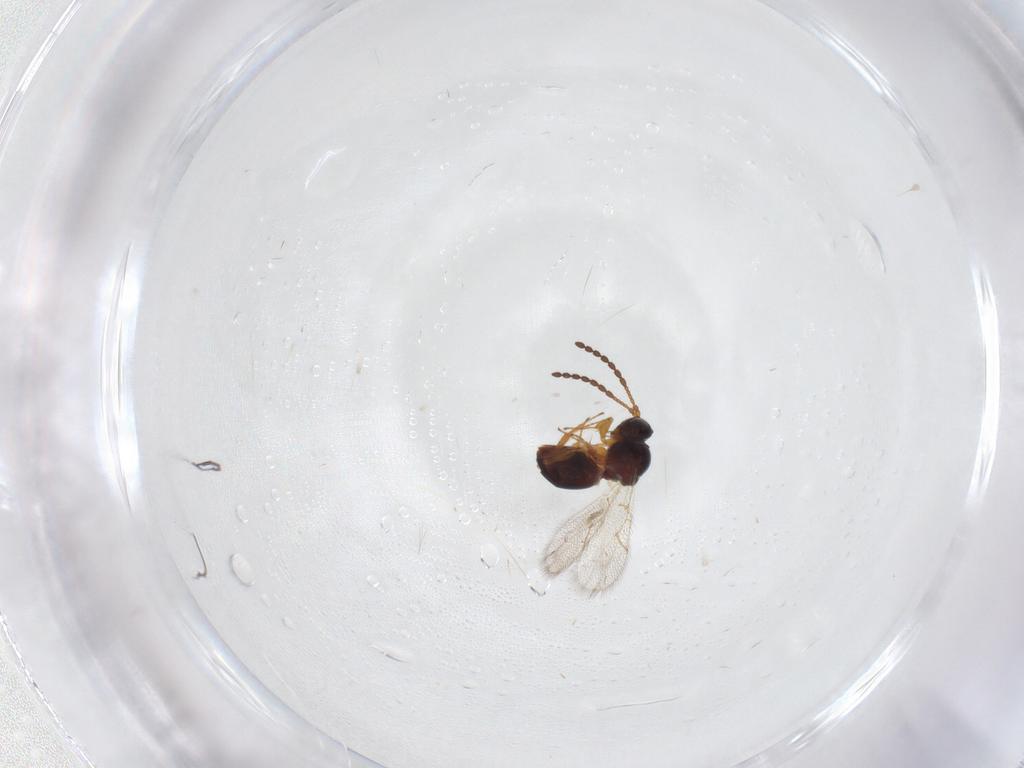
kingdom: Animalia
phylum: Arthropoda
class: Insecta
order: Hymenoptera
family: Figitidae
